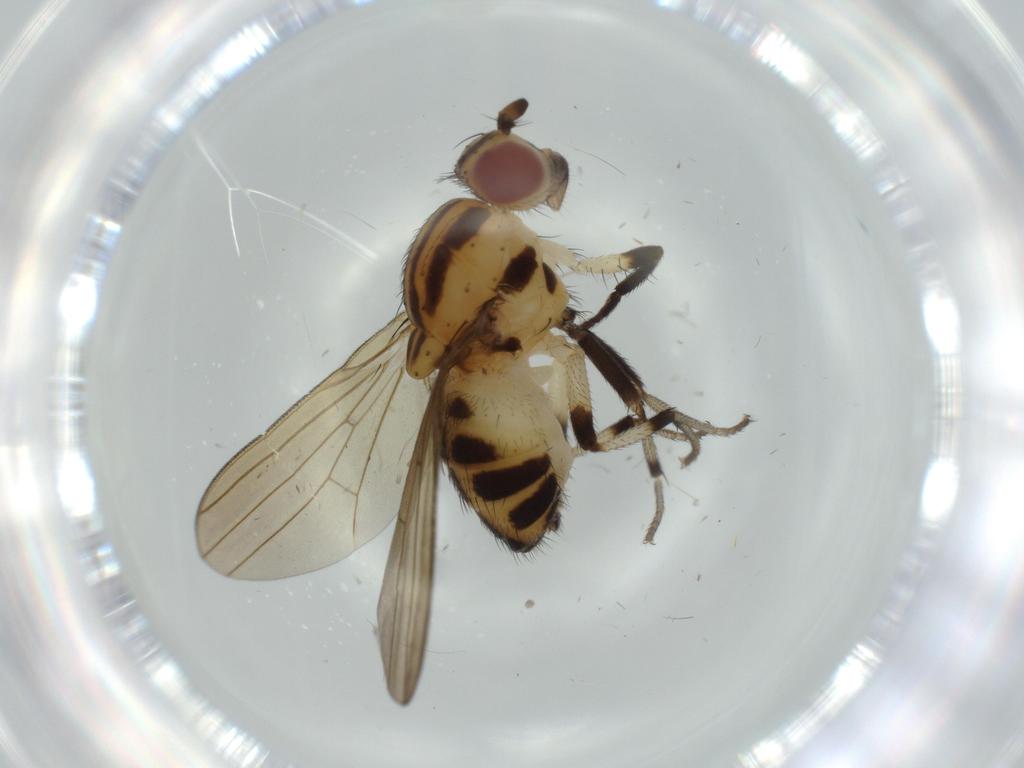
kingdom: Animalia
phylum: Arthropoda
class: Insecta
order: Diptera
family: Lauxaniidae
